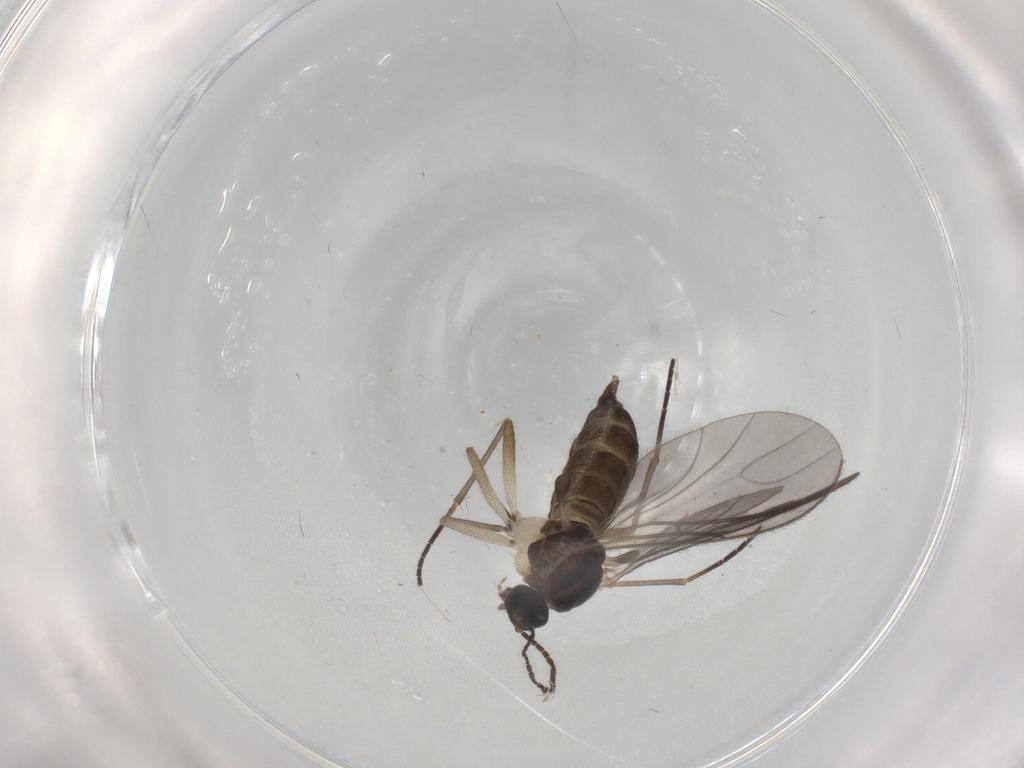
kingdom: Animalia
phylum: Arthropoda
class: Insecta
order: Diptera
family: Sciaridae
